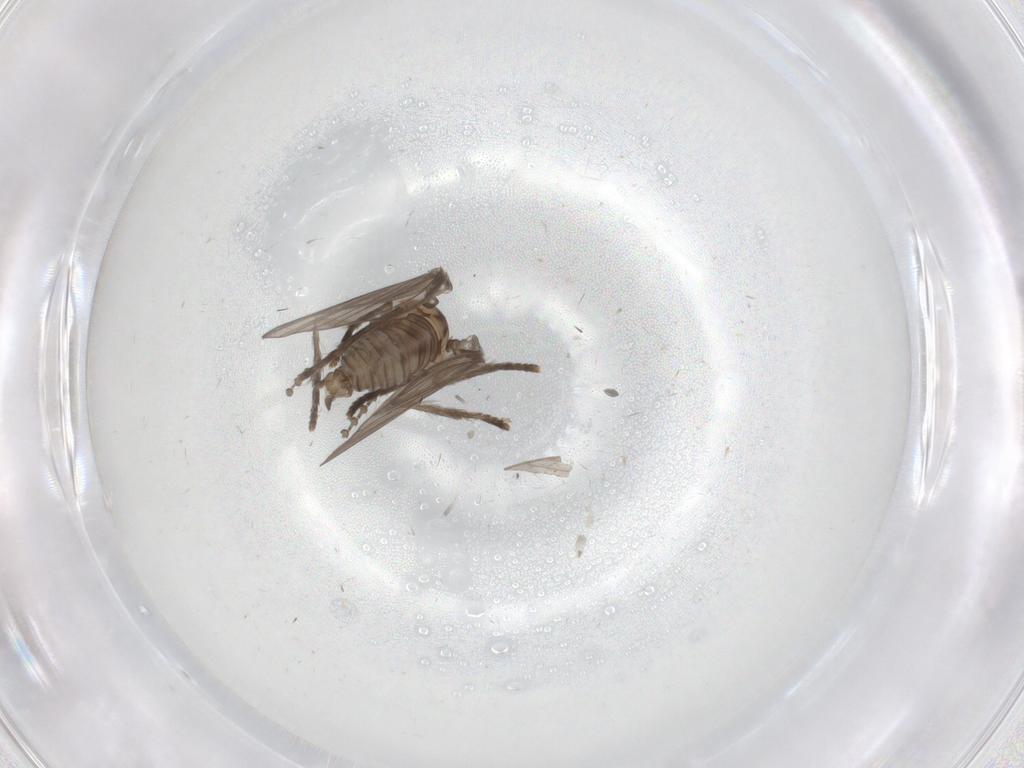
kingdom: Animalia
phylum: Arthropoda
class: Insecta
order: Diptera
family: Psychodidae
